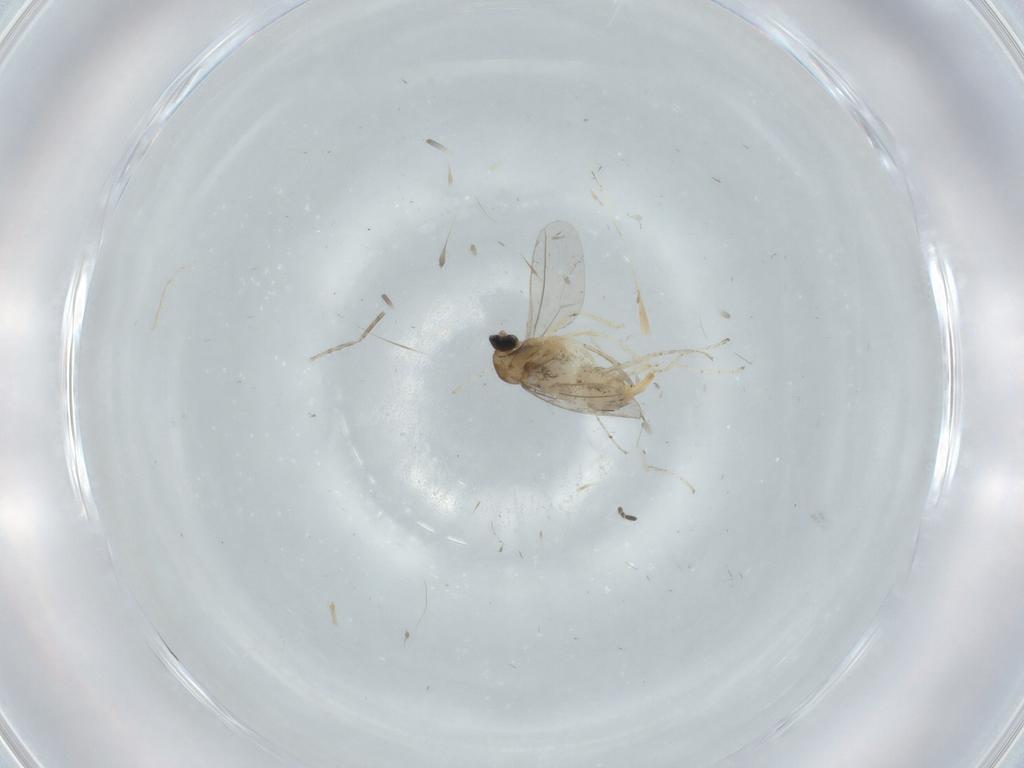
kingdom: Animalia
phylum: Arthropoda
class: Insecta
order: Diptera
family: Cecidomyiidae
